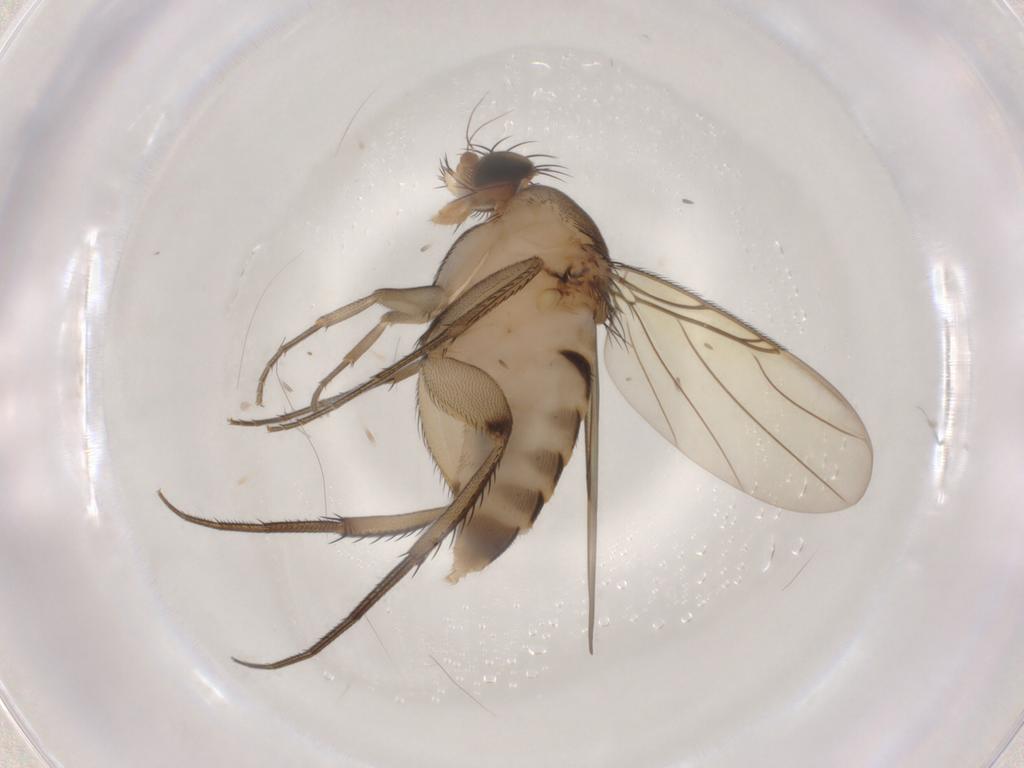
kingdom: Animalia
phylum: Arthropoda
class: Insecta
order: Diptera
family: Phoridae
